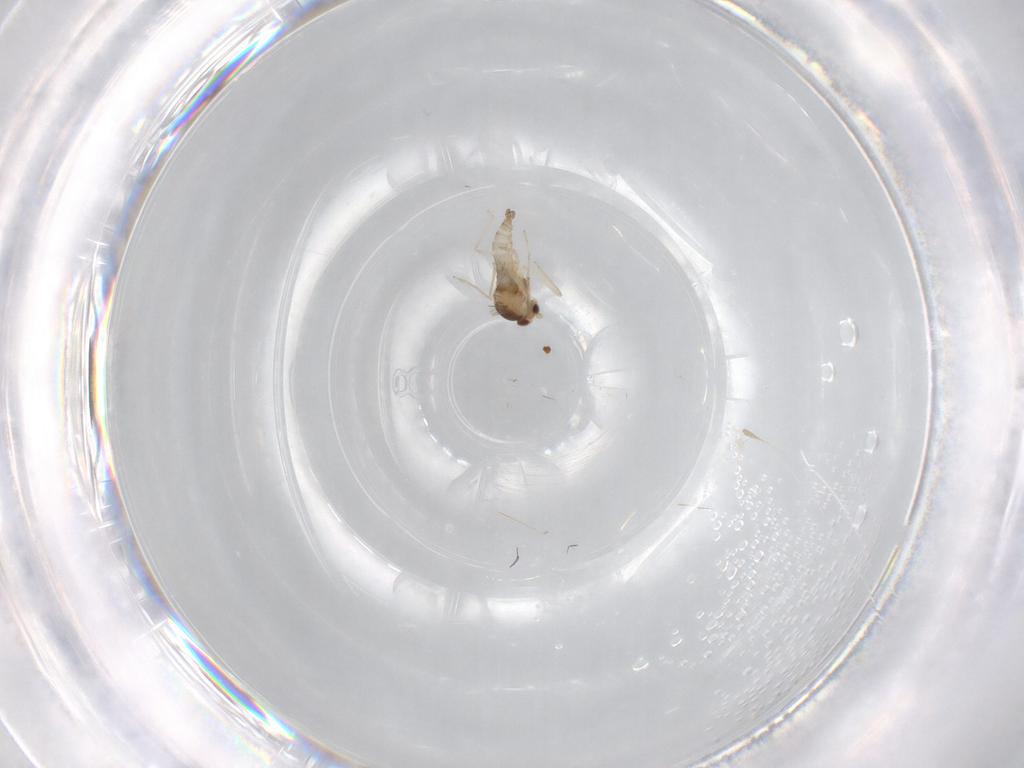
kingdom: Animalia
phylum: Arthropoda
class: Insecta
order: Diptera
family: Cecidomyiidae
